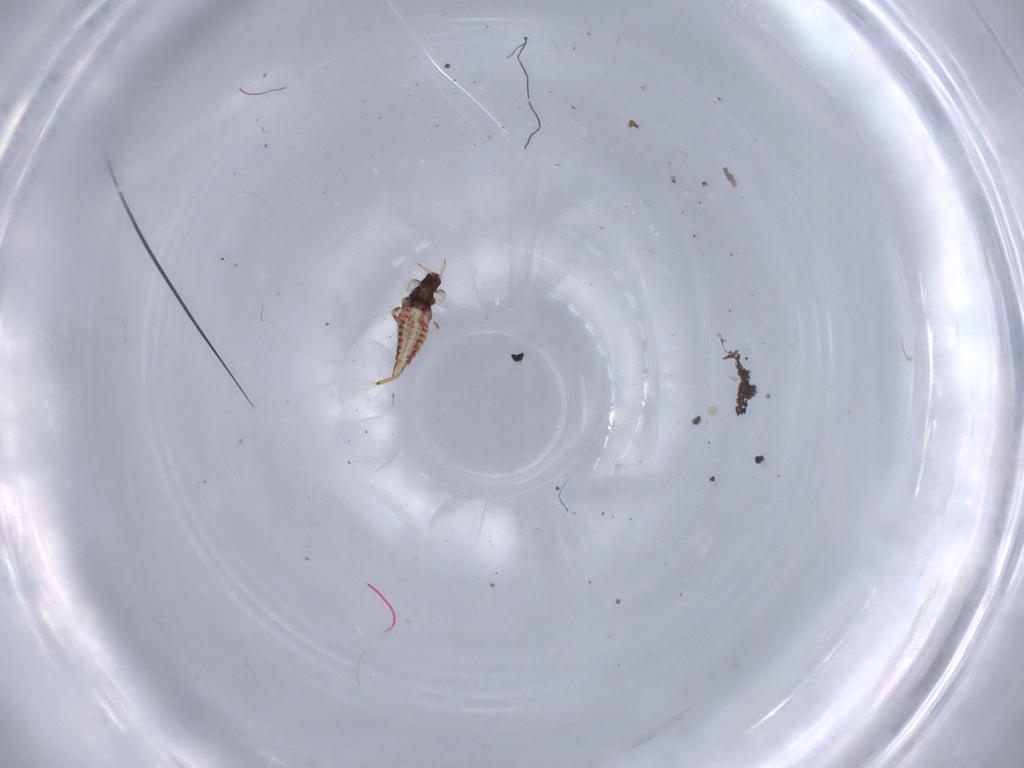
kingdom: Animalia
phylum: Arthropoda
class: Insecta
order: Thysanoptera
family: Phlaeothripidae
